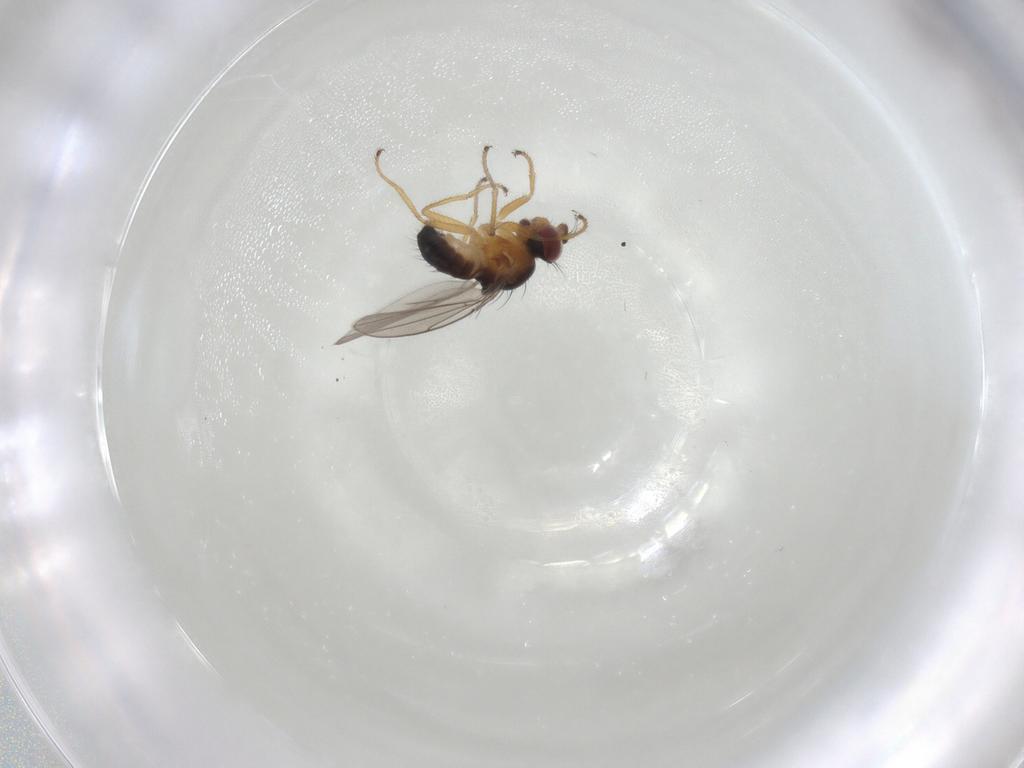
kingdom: Animalia
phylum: Arthropoda
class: Insecta
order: Diptera
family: Ephydridae
